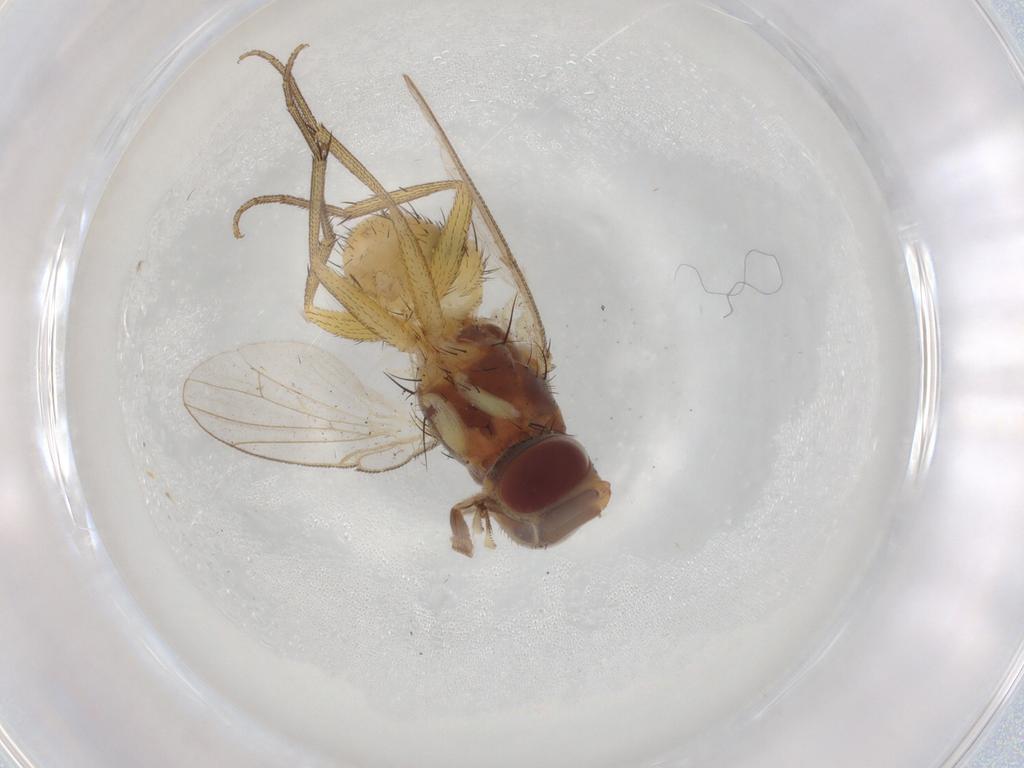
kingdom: Animalia
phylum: Arthropoda
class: Insecta
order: Diptera
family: Muscidae
